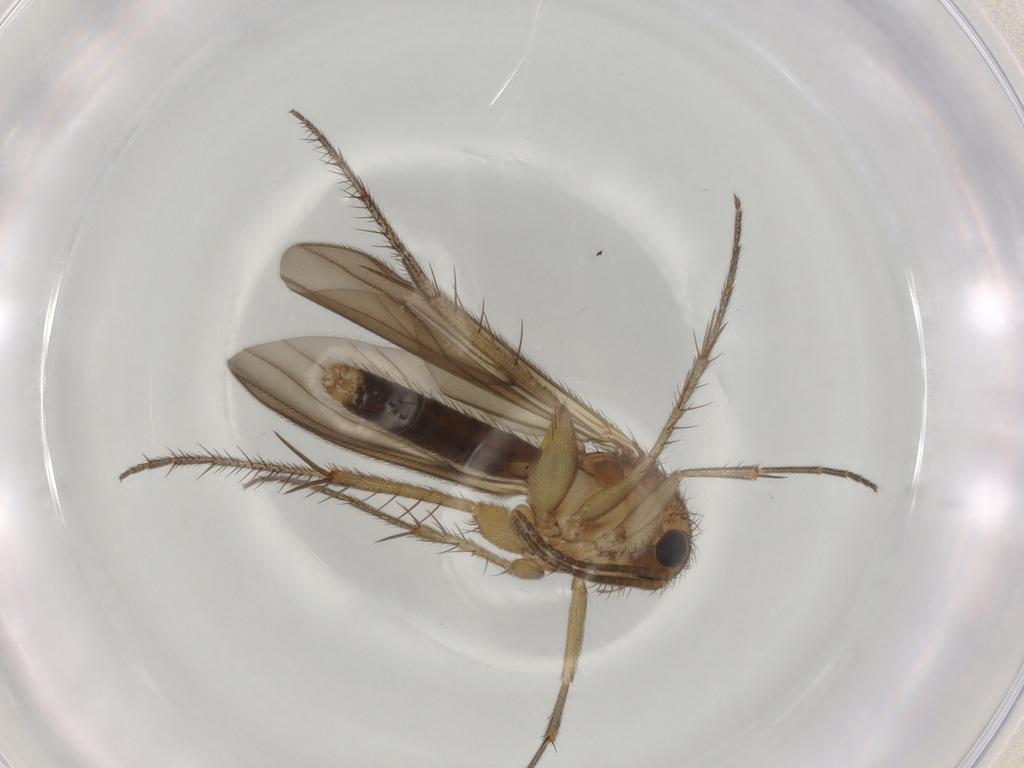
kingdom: Animalia
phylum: Arthropoda
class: Insecta
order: Diptera
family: Mycetophilidae
